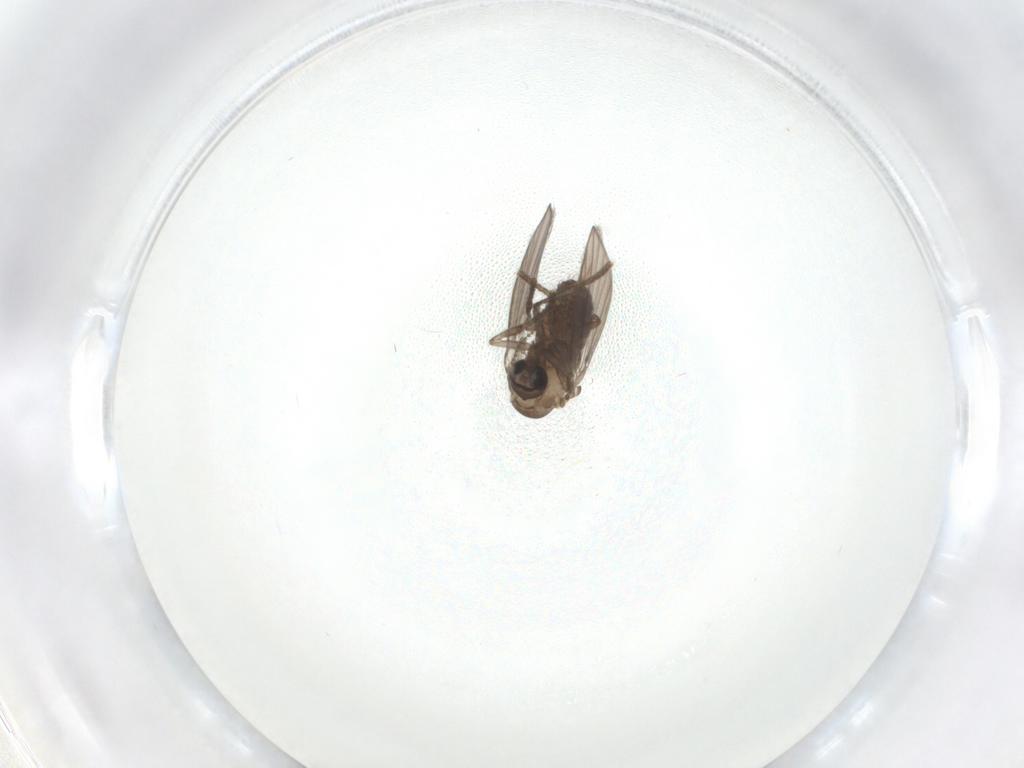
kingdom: Animalia
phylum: Arthropoda
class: Insecta
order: Diptera
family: Psychodidae
